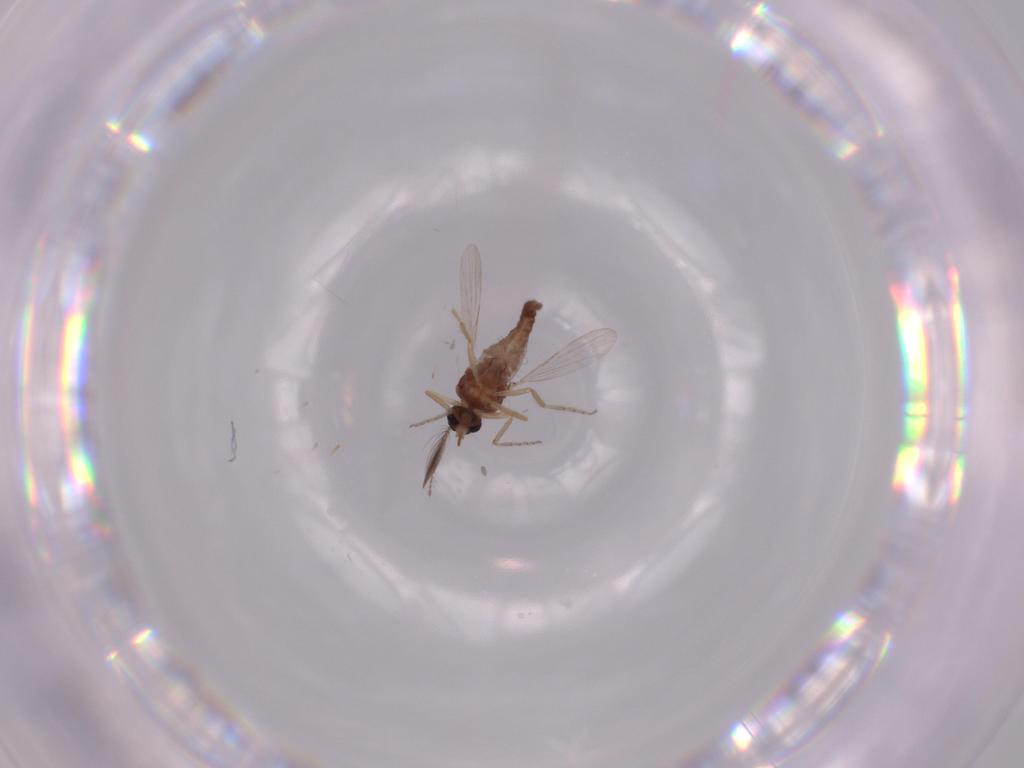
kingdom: Animalia
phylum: Arthropoda
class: Insecta
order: Diptera
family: Ceratopogonidae
